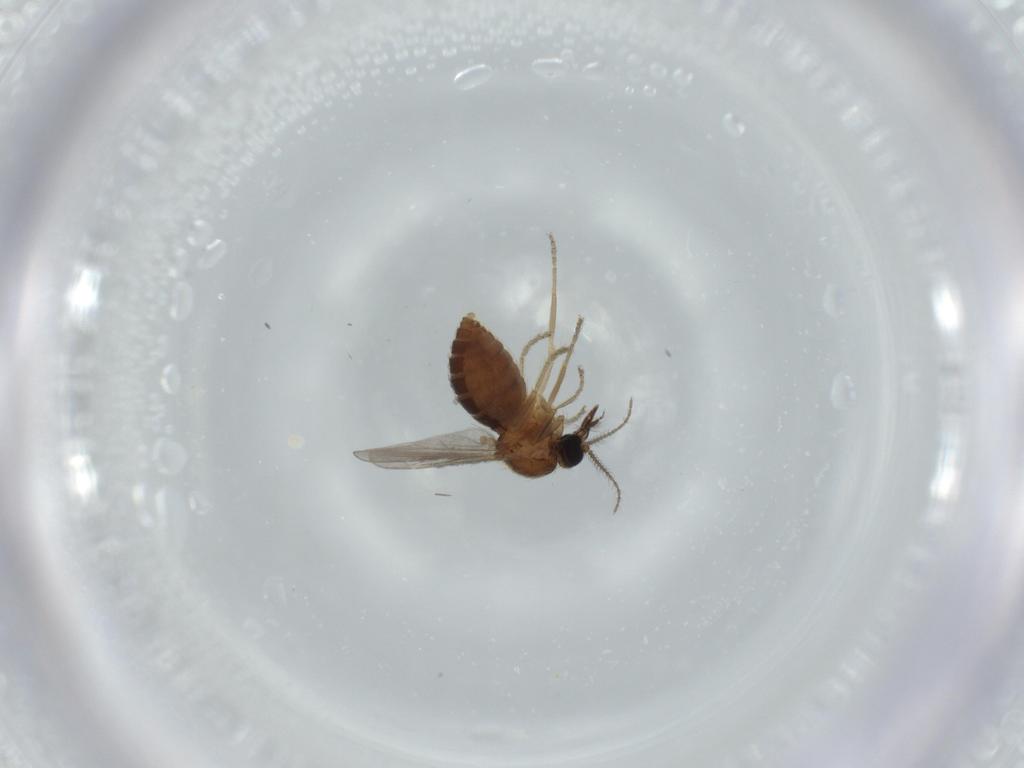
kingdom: Animalia
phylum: Arthropoda
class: Insecta
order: Diptera
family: Ceratopogonidae
